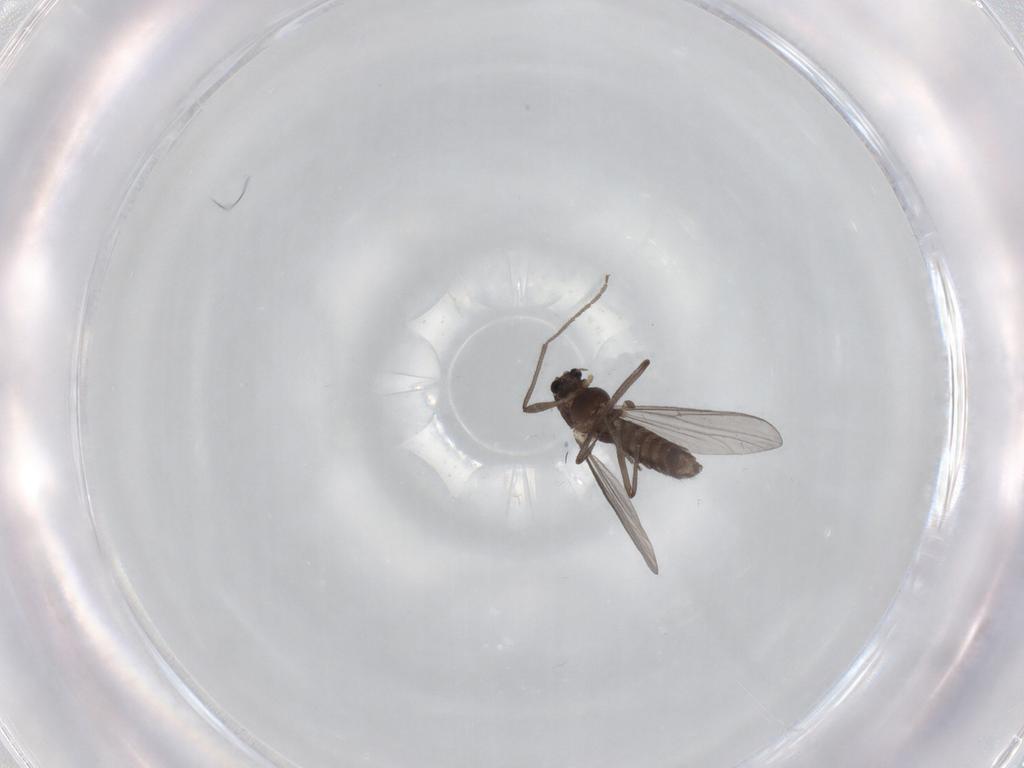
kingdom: Animalia
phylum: Arthropoda
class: Insecta
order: Diptera
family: Chironomidae
